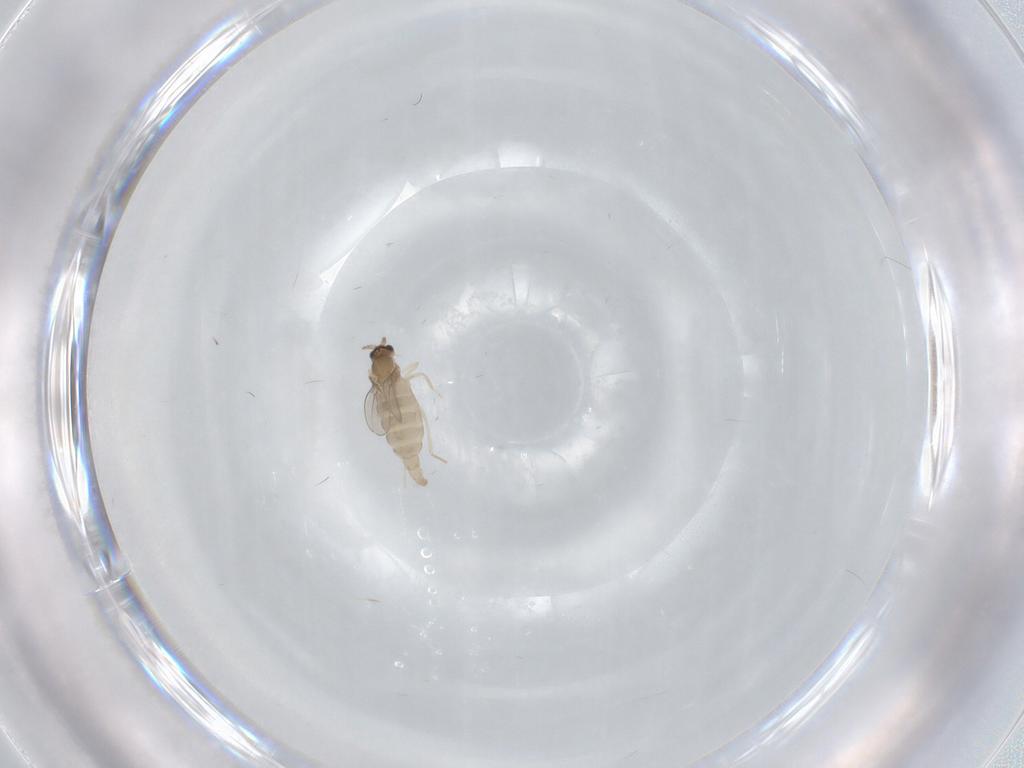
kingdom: Animalia
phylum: Arthropoda
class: Insecta
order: Diptera
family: Cecidomyiidae
